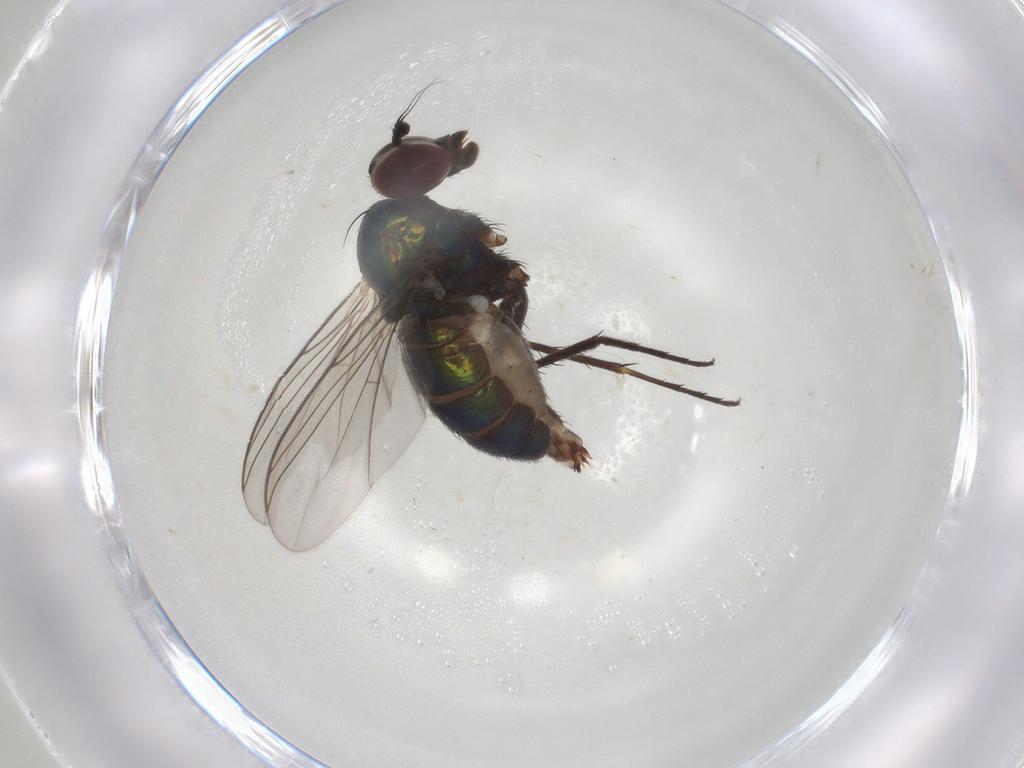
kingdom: Animalia
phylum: Arthropoda
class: Insecta
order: Diptera
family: Dolichopodidae
